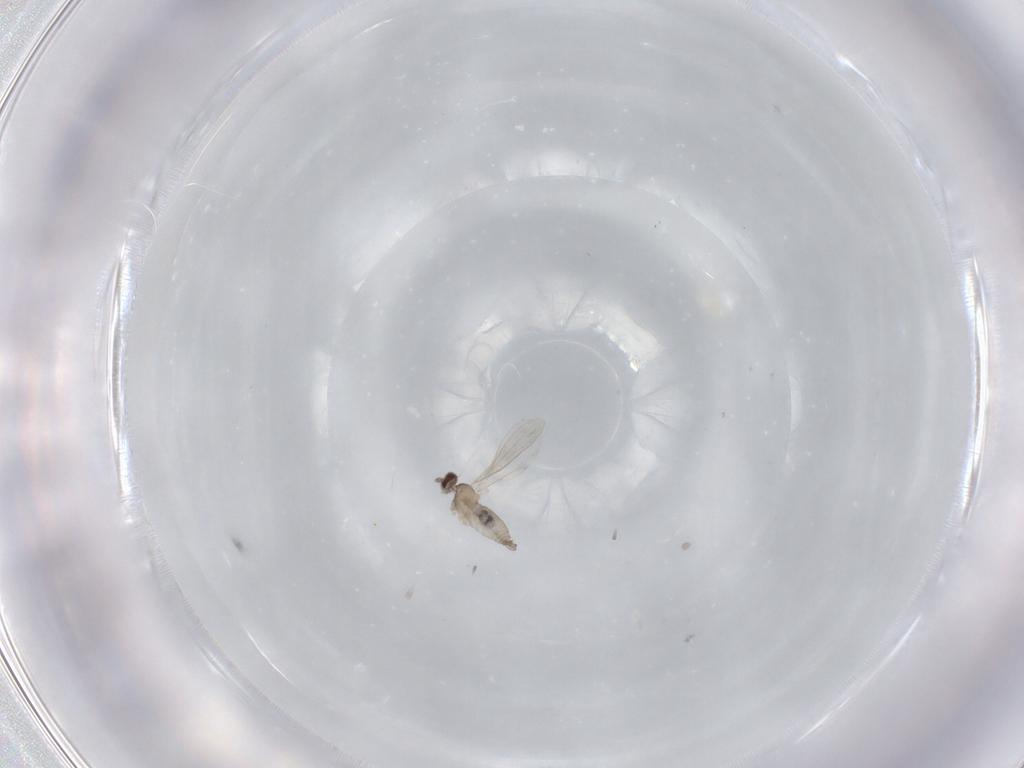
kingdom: Animalia
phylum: Arthropoda
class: Insecta
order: Diptera
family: Cecidomyiidae
